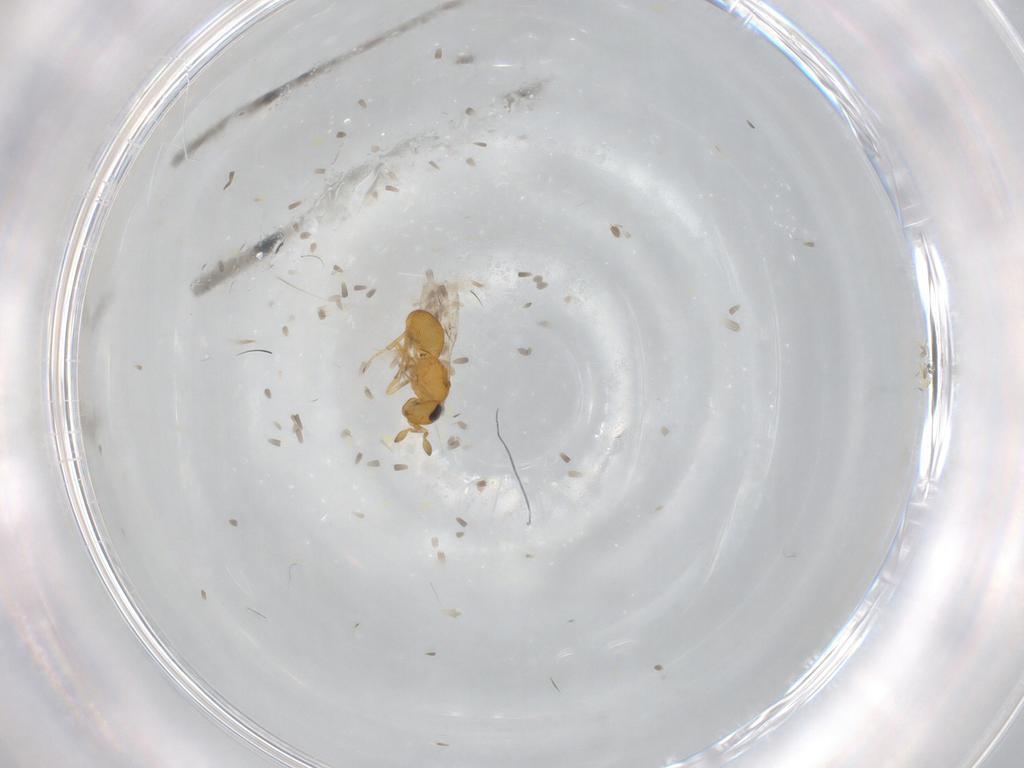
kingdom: Animalia
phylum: Arthropoda
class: Insecta
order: Hymenoptera
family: Scelionidae
